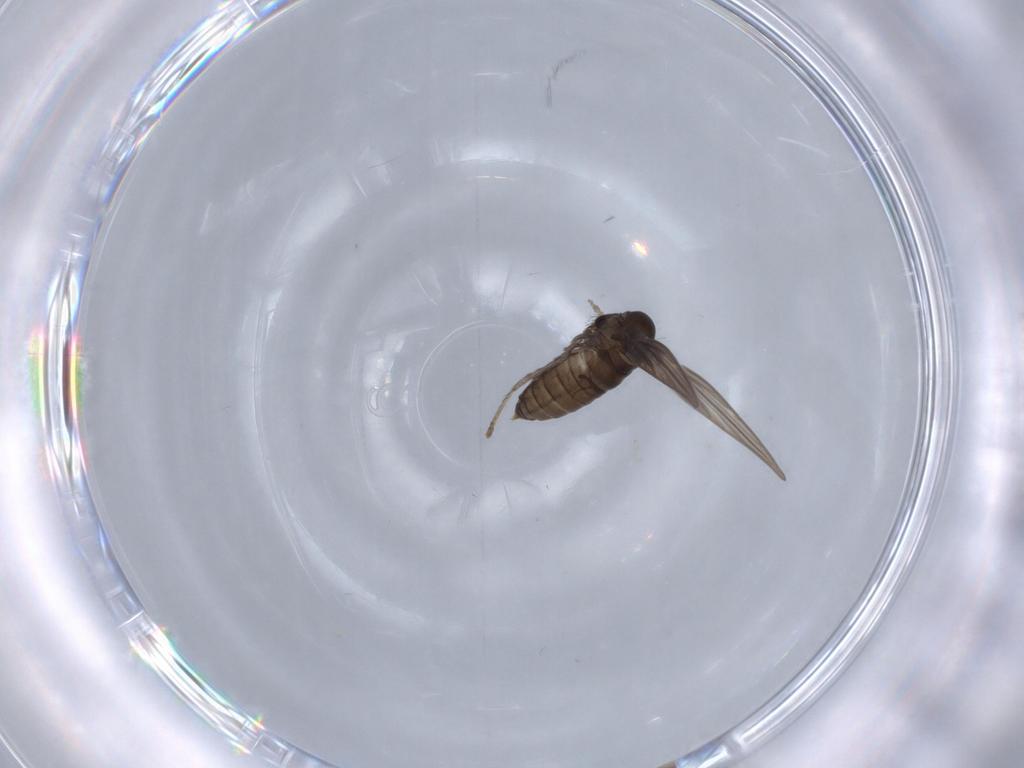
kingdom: Animalia
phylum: Arthropoda
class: Insecta
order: Diptera
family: Psychodidae
